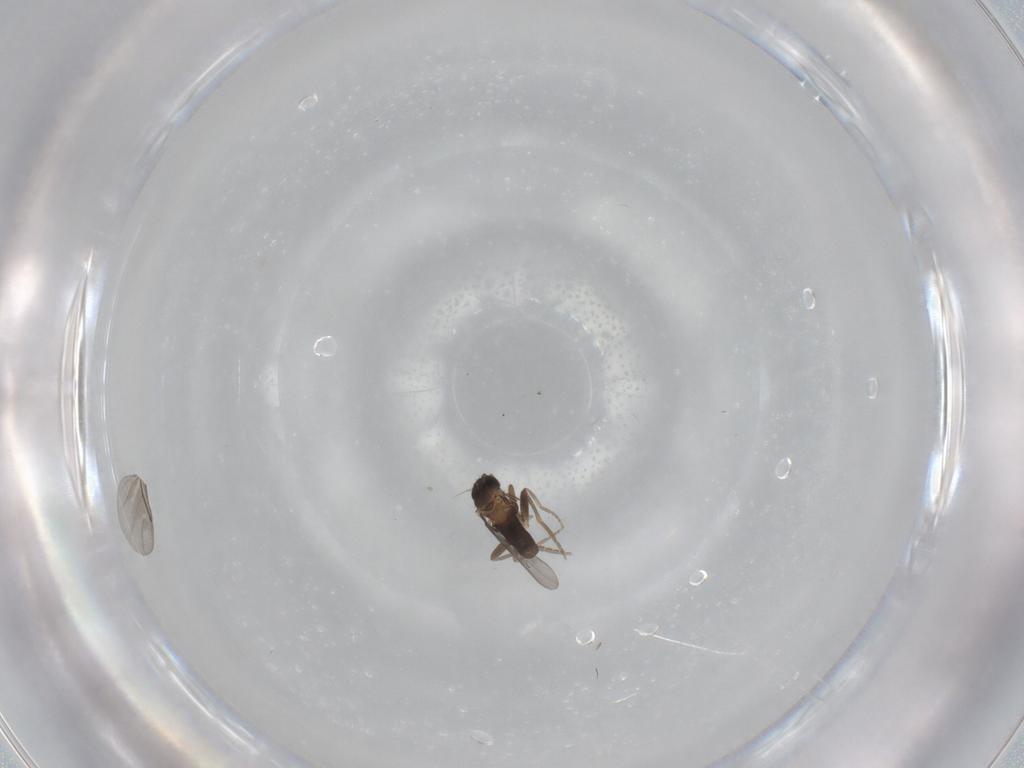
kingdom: Animalia
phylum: Arthropoda
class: Insecta
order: Diptera
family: Phoridae
